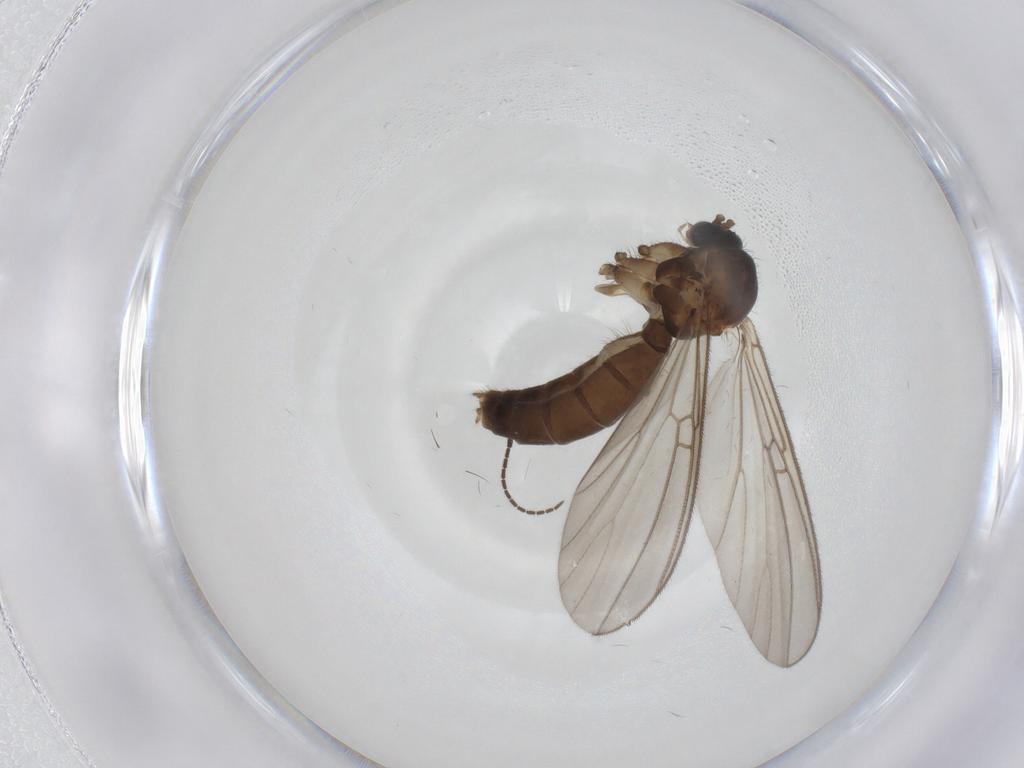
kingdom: Animalia
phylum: Arthropoda
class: Insecta
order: Diptera
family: Mycetophilidae
